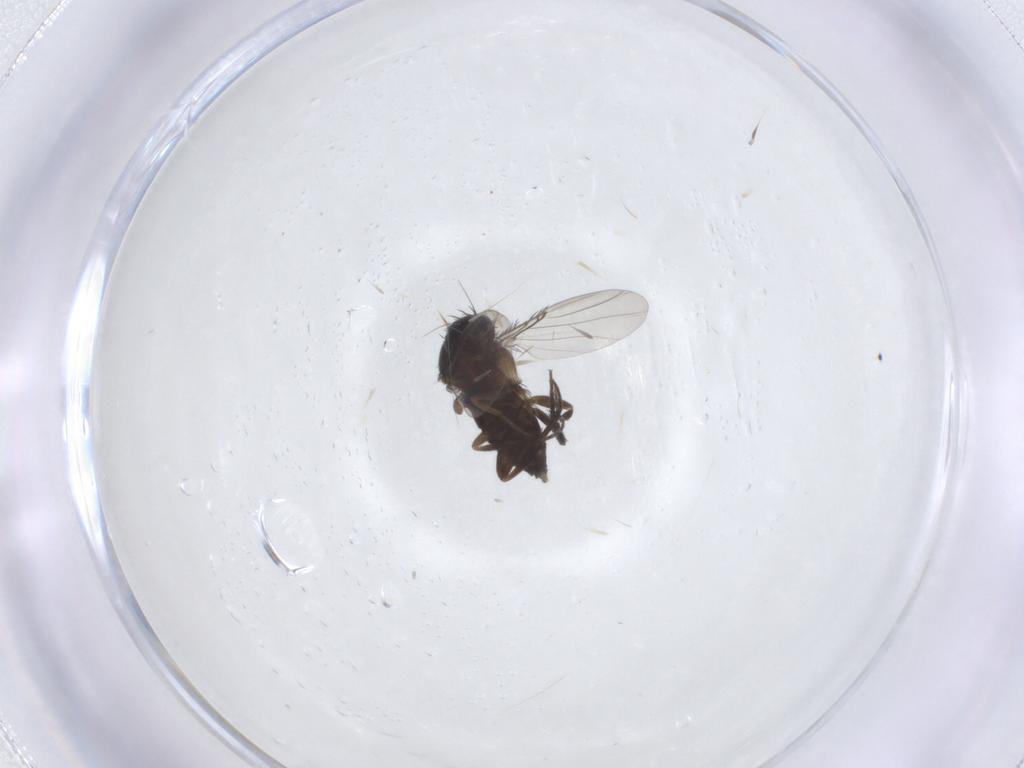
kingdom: Animalia
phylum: Arthropoda
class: Insecta
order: Diptera
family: Phoridae
